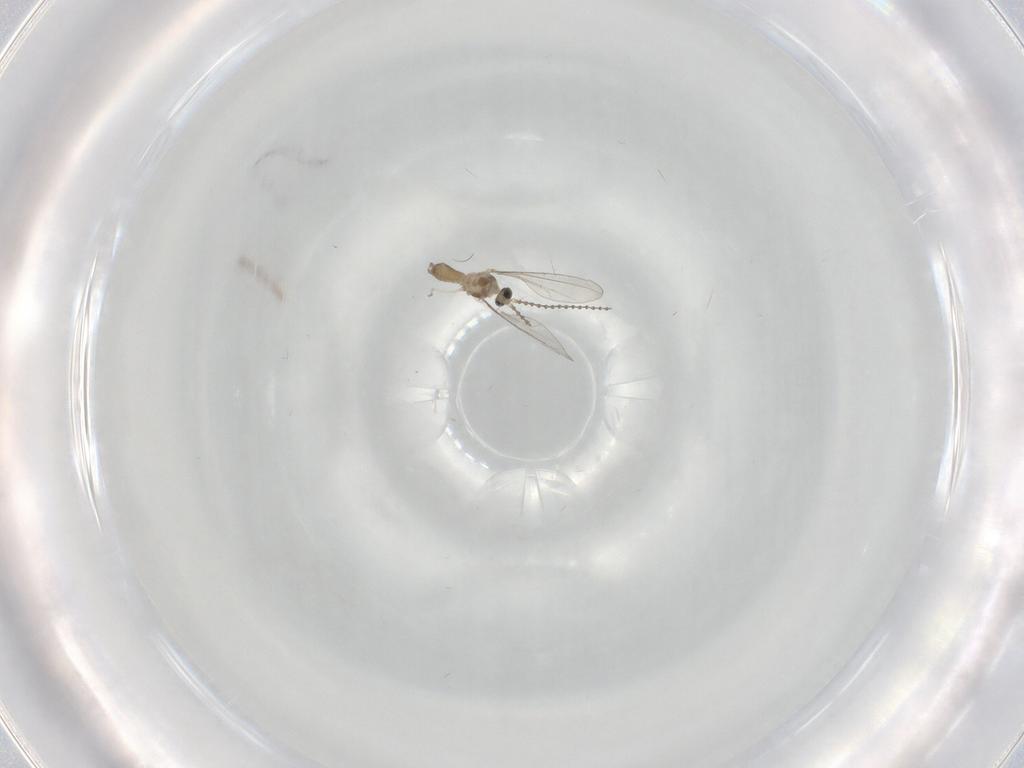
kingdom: Animalia
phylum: Arthropoda
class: Insecta
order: Diptera
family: Cecidomyiidae
